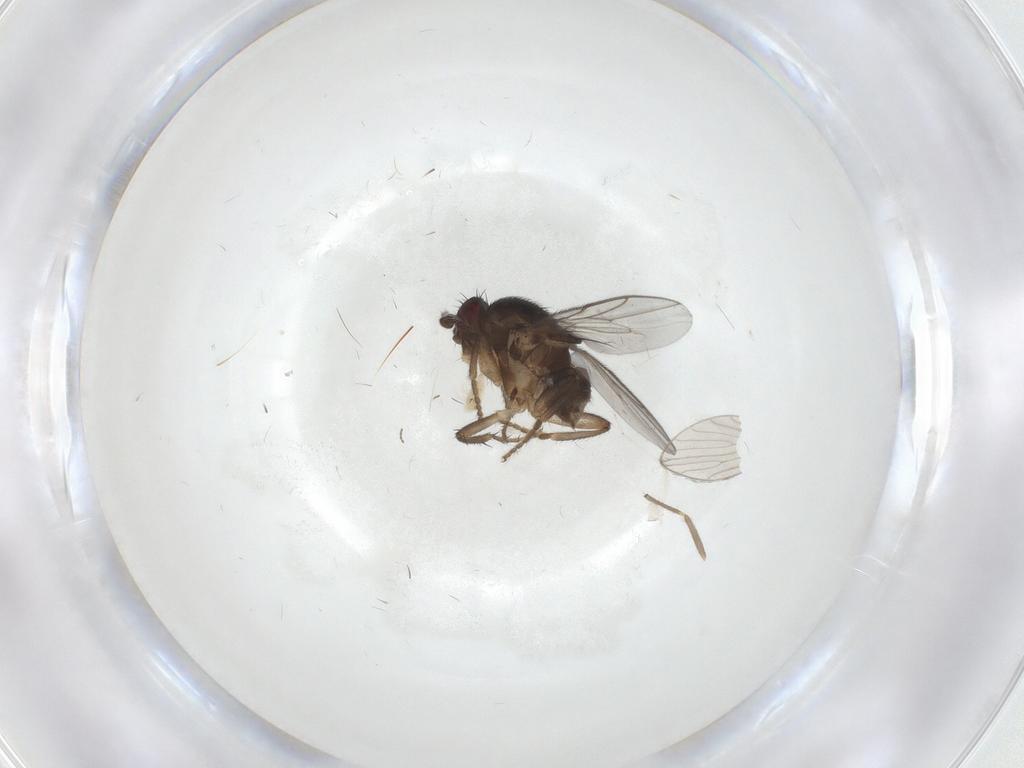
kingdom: Animalia
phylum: Arthropoda
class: Insecta
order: Diptera
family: Sphaeroceridae
